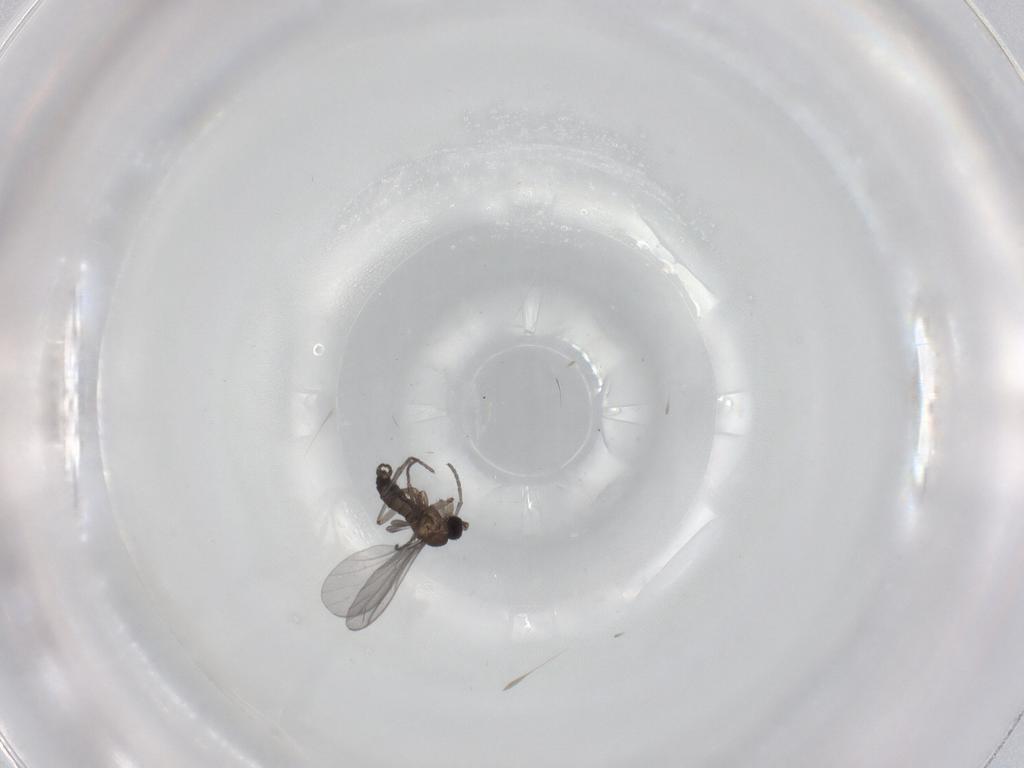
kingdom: Animalia
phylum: Arthropoda
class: Insecta
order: Diptera
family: Sciaridae
